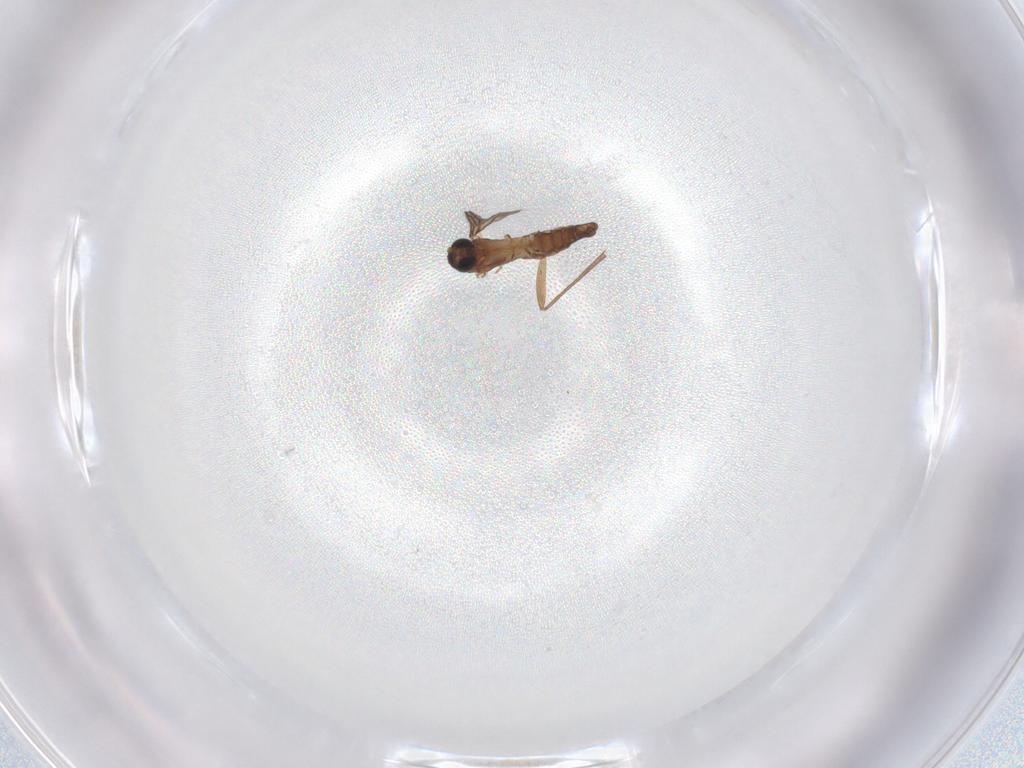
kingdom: Animalia
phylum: Arthropoda
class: Insecta
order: Diptera
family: Sciaridae
